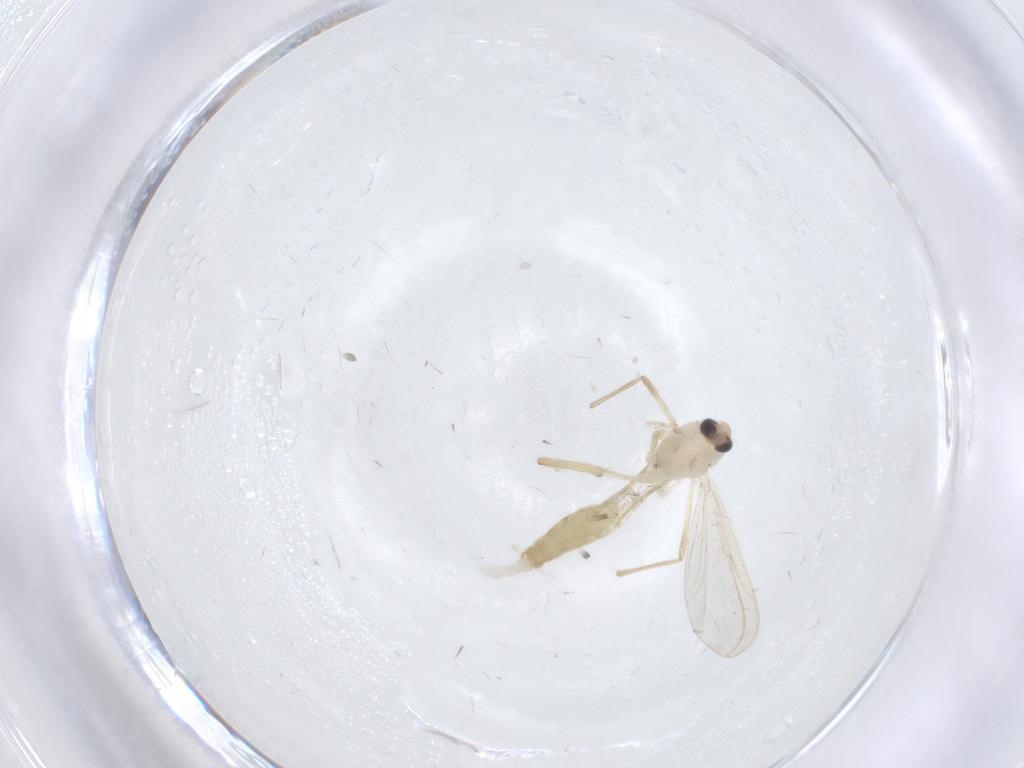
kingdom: Animalia
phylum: Arthropoda
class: Insecta
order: Diptera
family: Chironomidae
